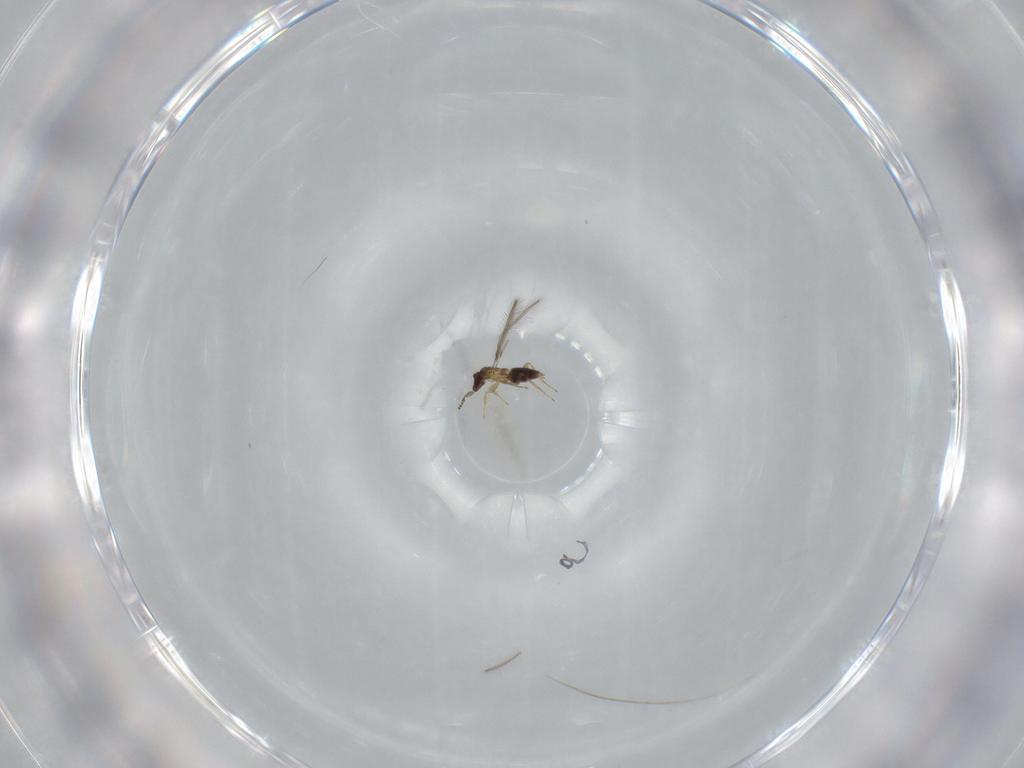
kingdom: Animalia
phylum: Arthropoda
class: Insecta
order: Hymenoptera
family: Mymaridae
